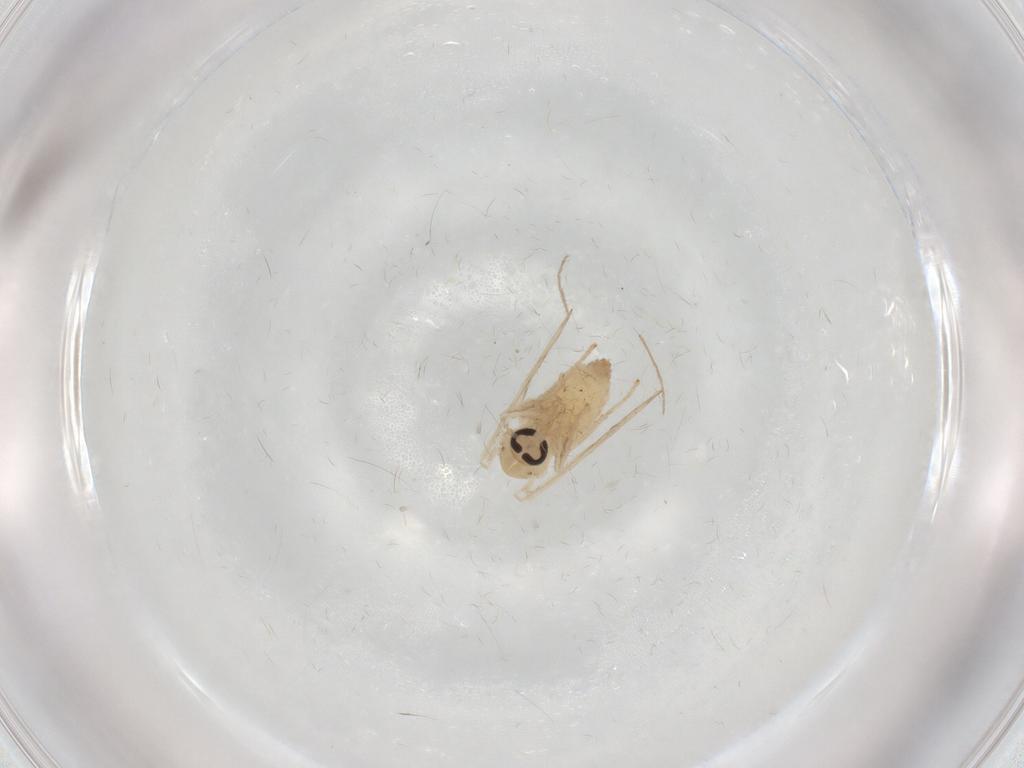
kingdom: Animalia
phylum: Arthropoda
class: Insecta
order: Diptera
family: Psychodidae
